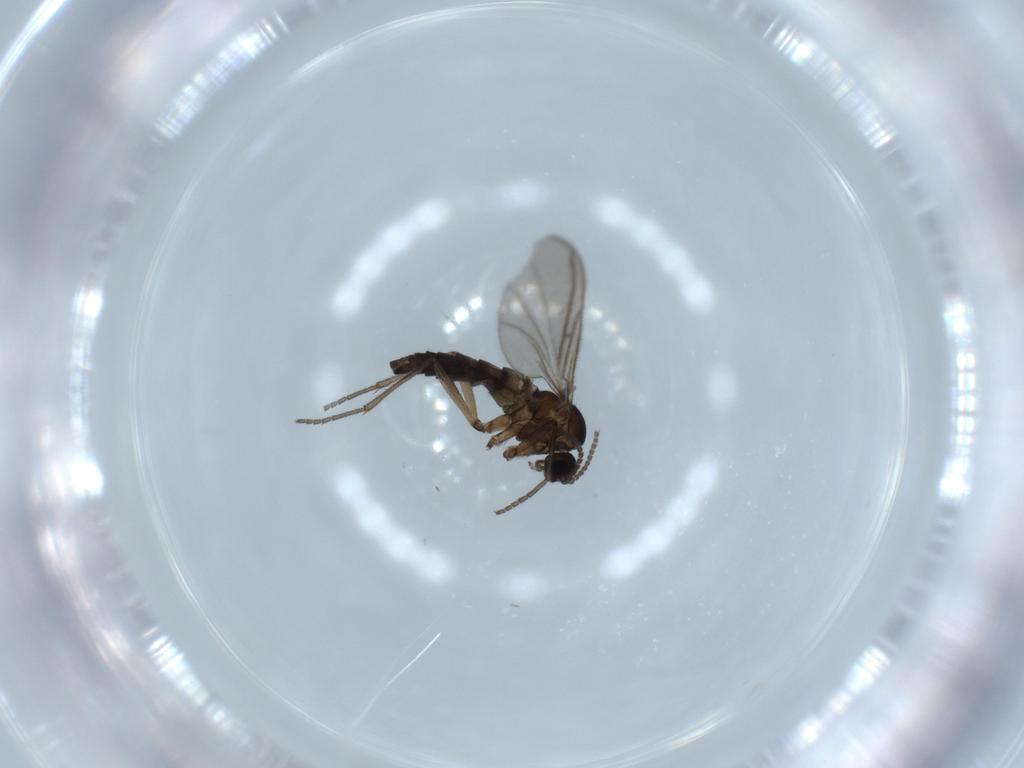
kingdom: Animalia
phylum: Arthropoda
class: Insecta
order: Diptera
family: Sciaridae
